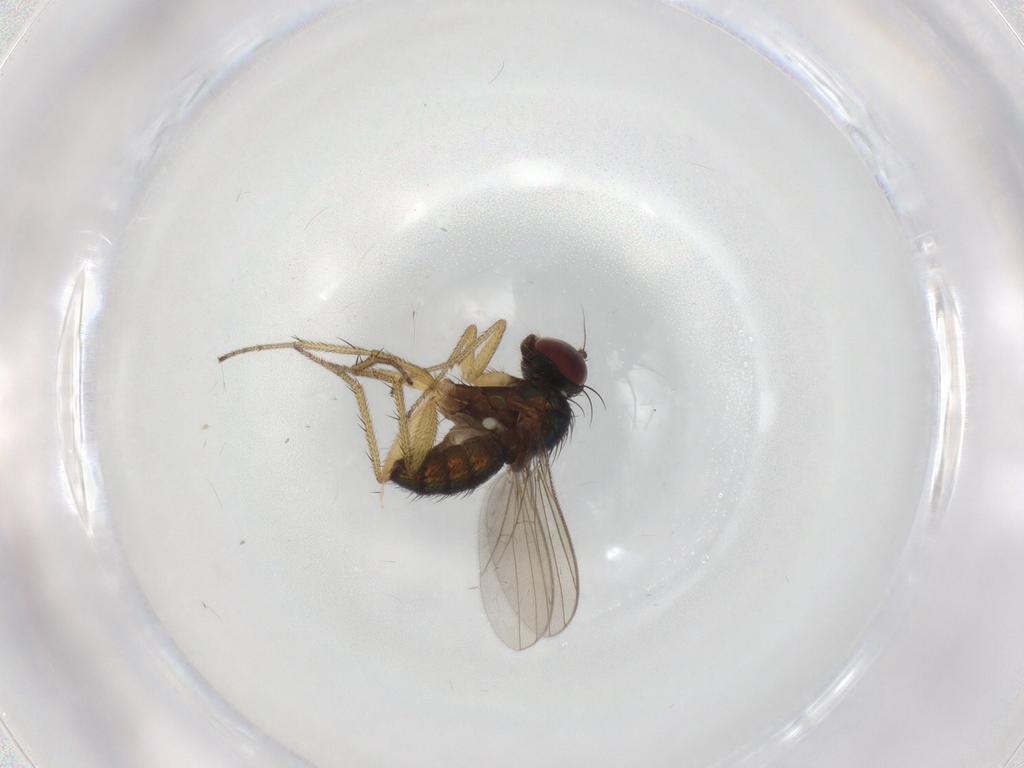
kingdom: Animalia
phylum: Arthropoda
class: Insecta
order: Diptera
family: Dolichopodidae
